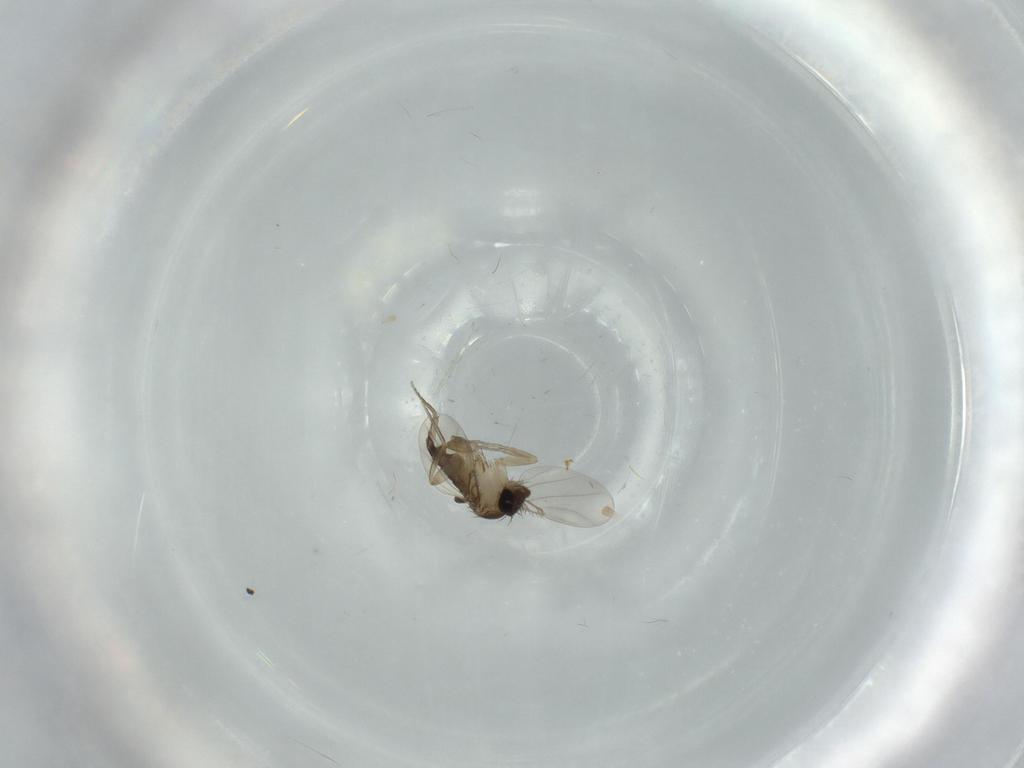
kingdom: Animalia
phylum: Arthropoda
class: Insecta
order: Diptera
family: Phoridae
